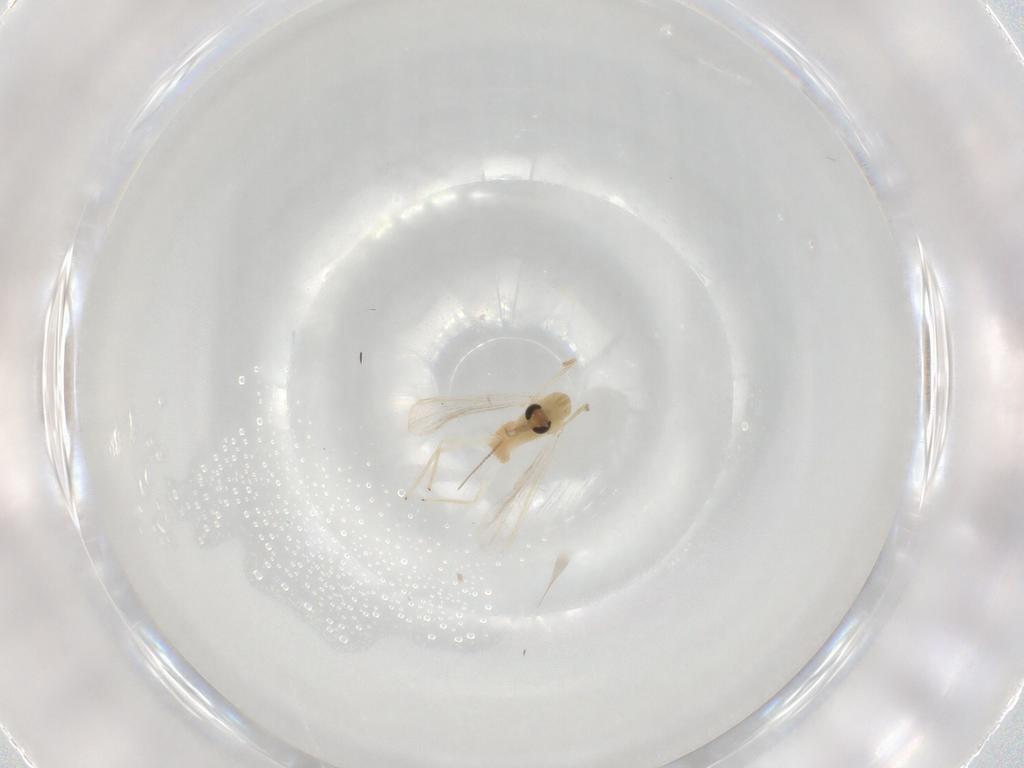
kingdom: Animalia
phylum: Arthropoda
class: Insecta
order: Diptera
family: Chironomidae
